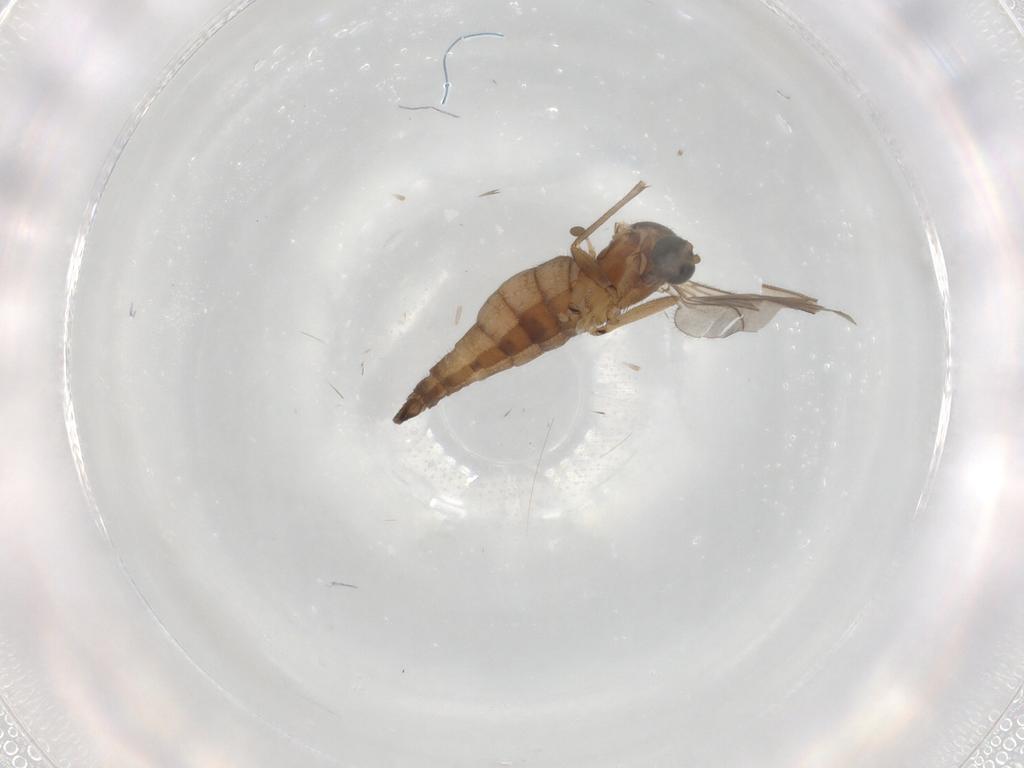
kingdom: Animalia
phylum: Arthropoda
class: Insecta
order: Diptera
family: Sciaridae
